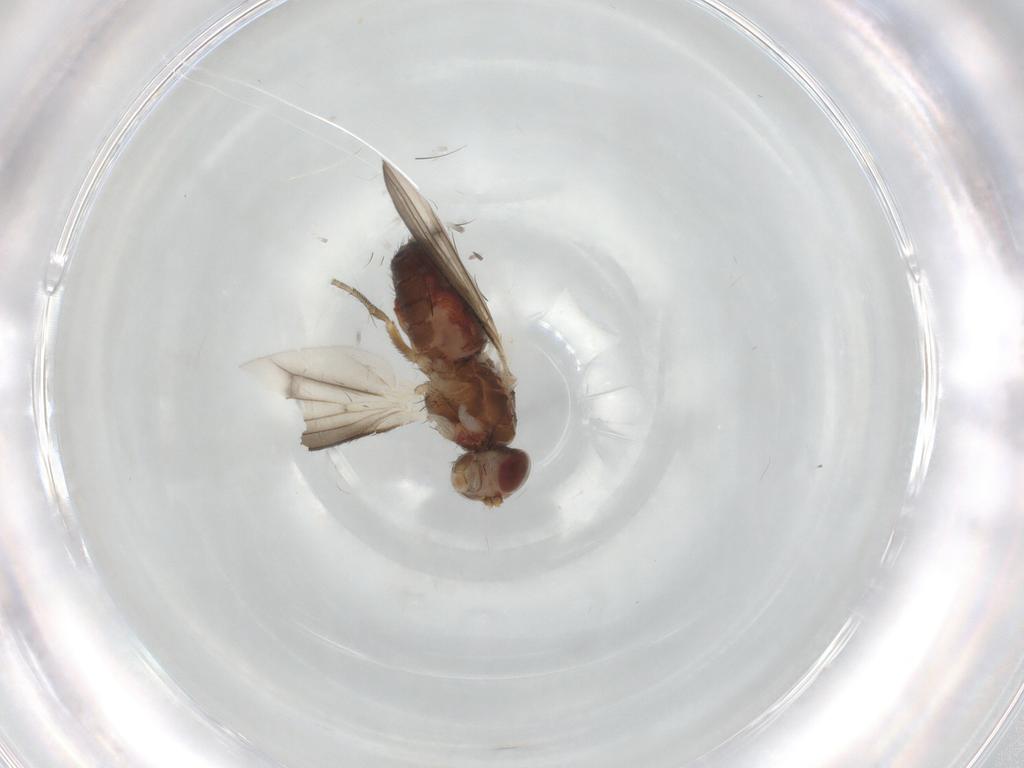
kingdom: Animalia
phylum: Arthropoda
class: Insecta
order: Diptera
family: Heleomyzidae
